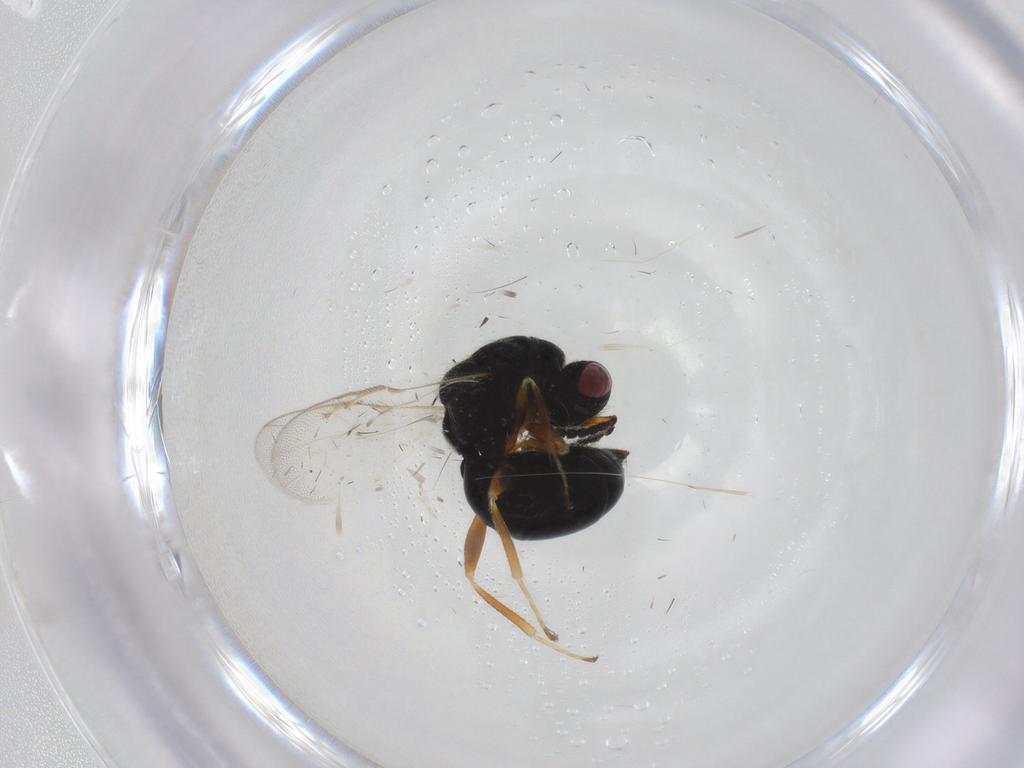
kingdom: Animalia
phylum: Arthropoda
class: Insecta
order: Hymenoptera
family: Eurytomidae
